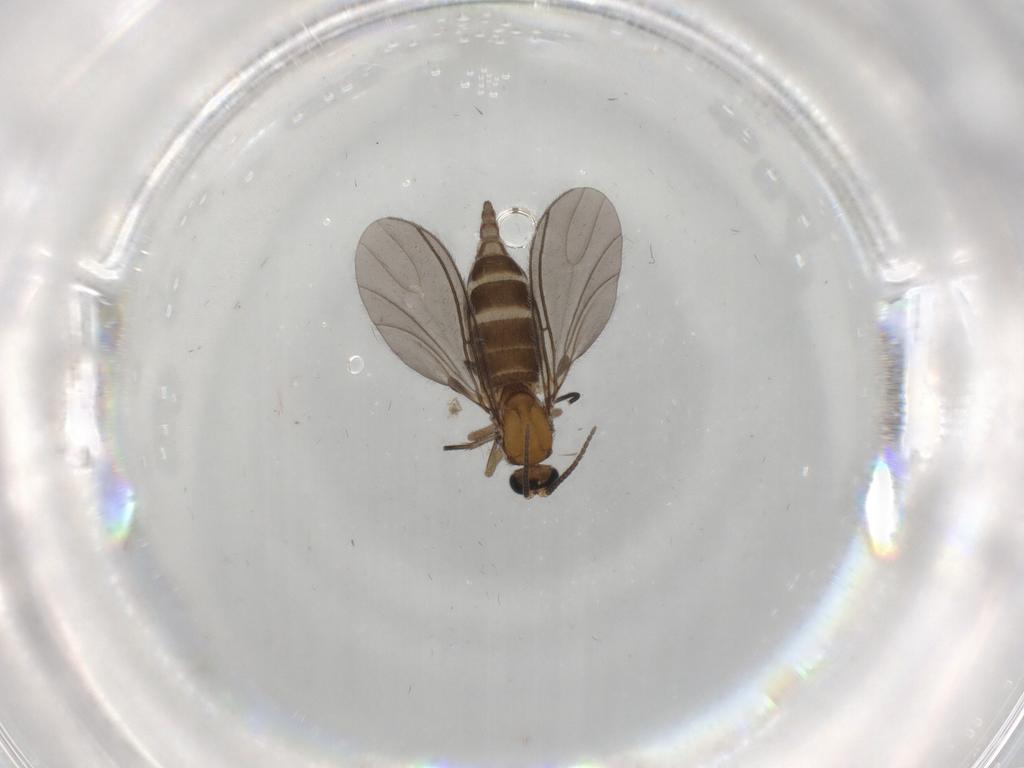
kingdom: Animalia
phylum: Arthropoda
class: Insecta
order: Diptera
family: Sciaridae
